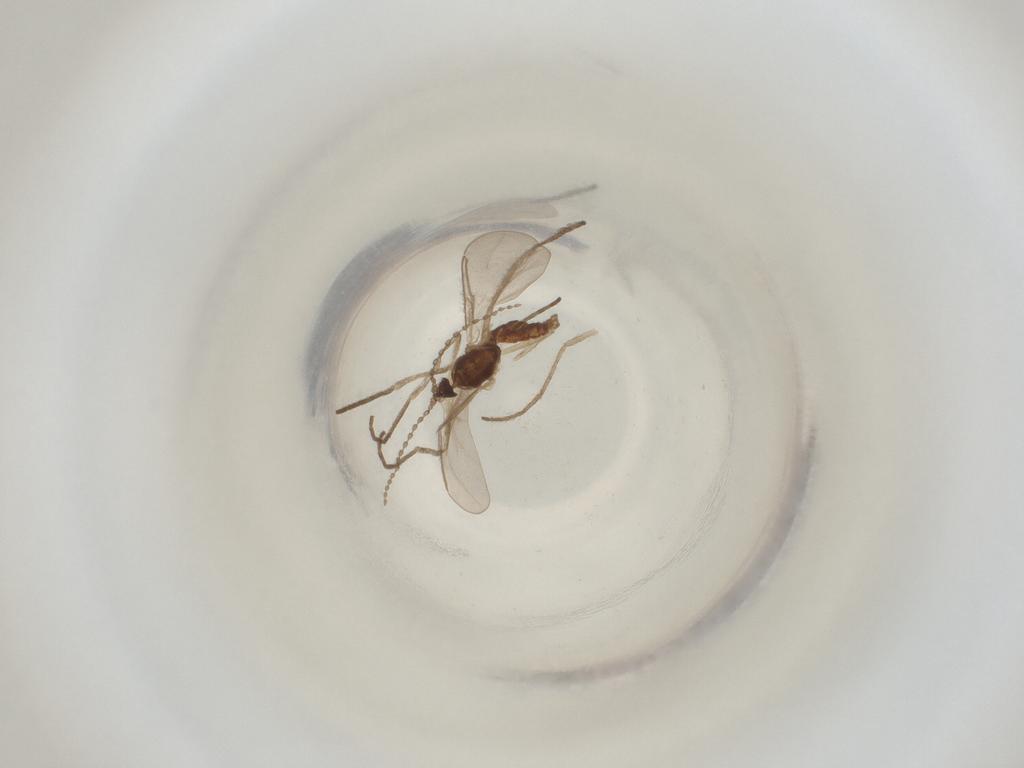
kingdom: Animalia
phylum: Arthropoda
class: Insecta
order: Diptera
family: Cecidomyiidae
